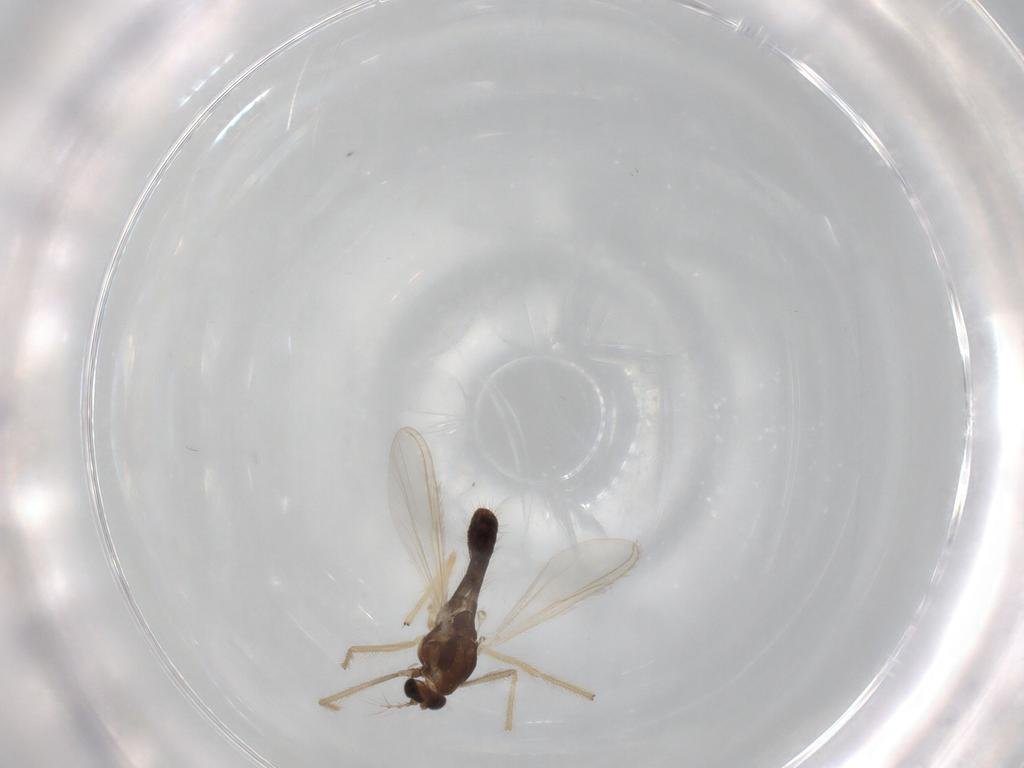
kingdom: Animalia
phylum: Arthropoda
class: Insecta
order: Diptera
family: Chironomidae
